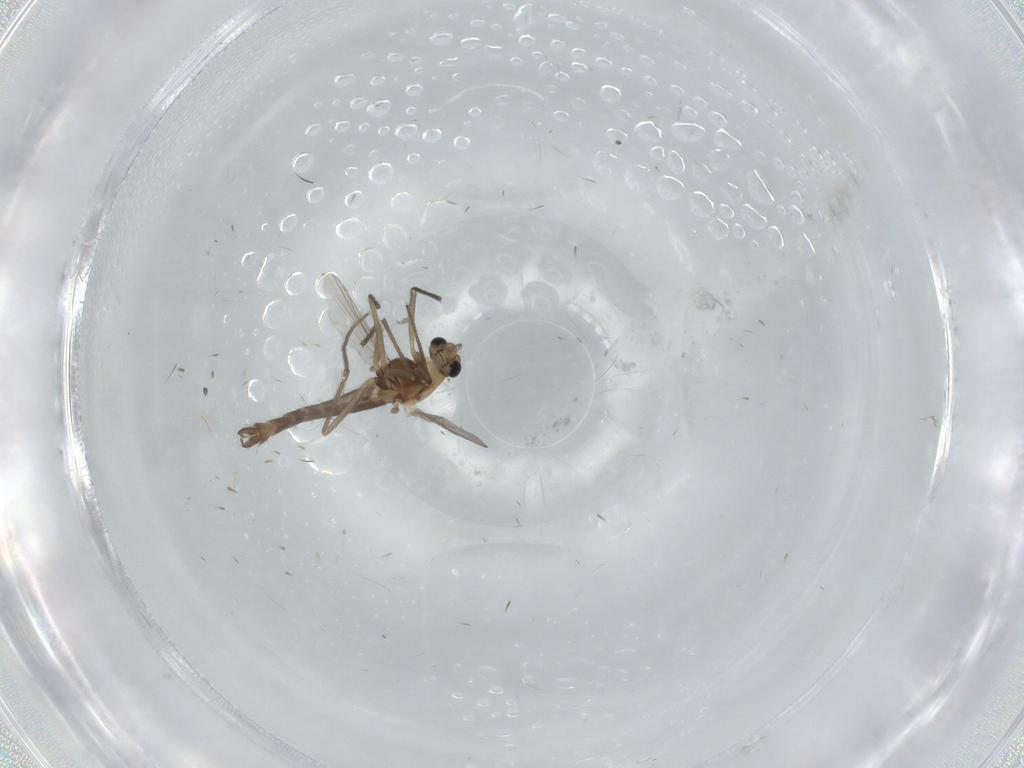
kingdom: Animalia
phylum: Arthropoda
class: Insecta
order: Diptera
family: Chironomidae
